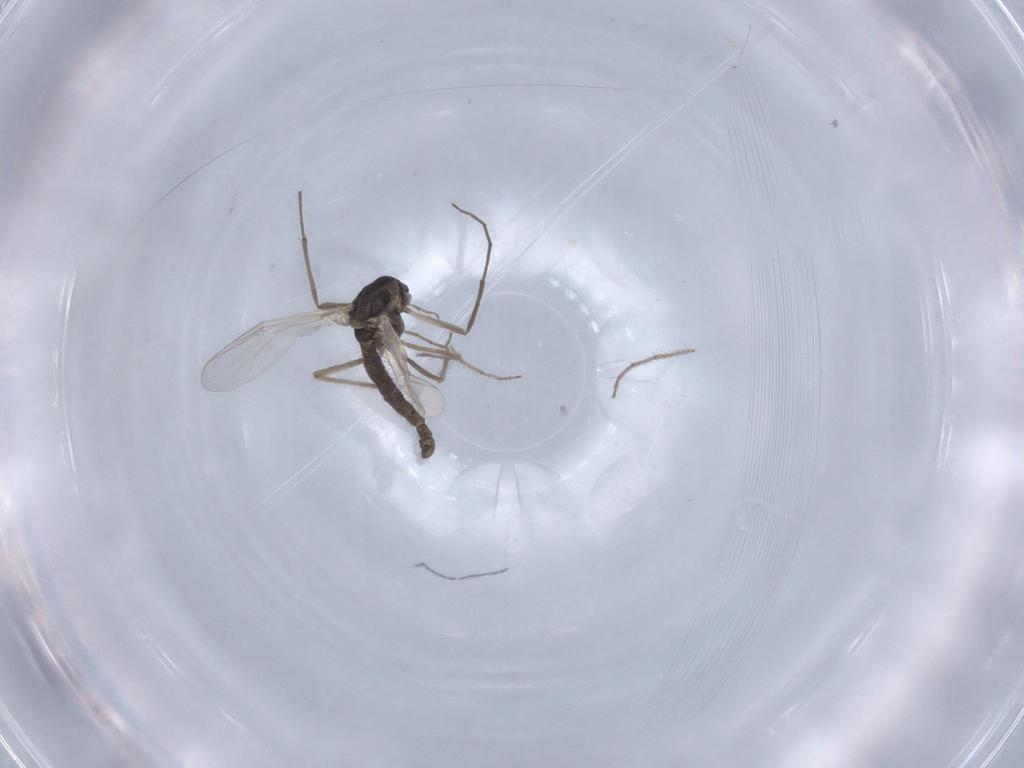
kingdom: Animalia
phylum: Arthropoda
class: Insecta
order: Diptera
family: Chironomidae
